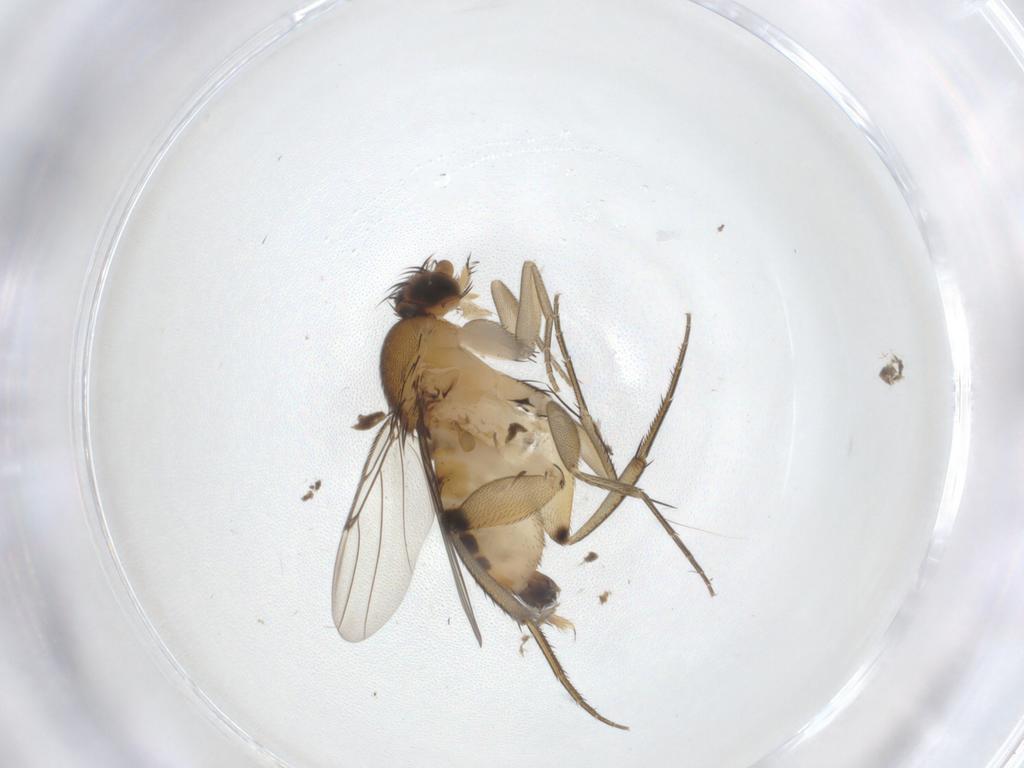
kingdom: Animalia
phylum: Arthropoda
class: Insecta
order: Diptera
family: Phoridae
